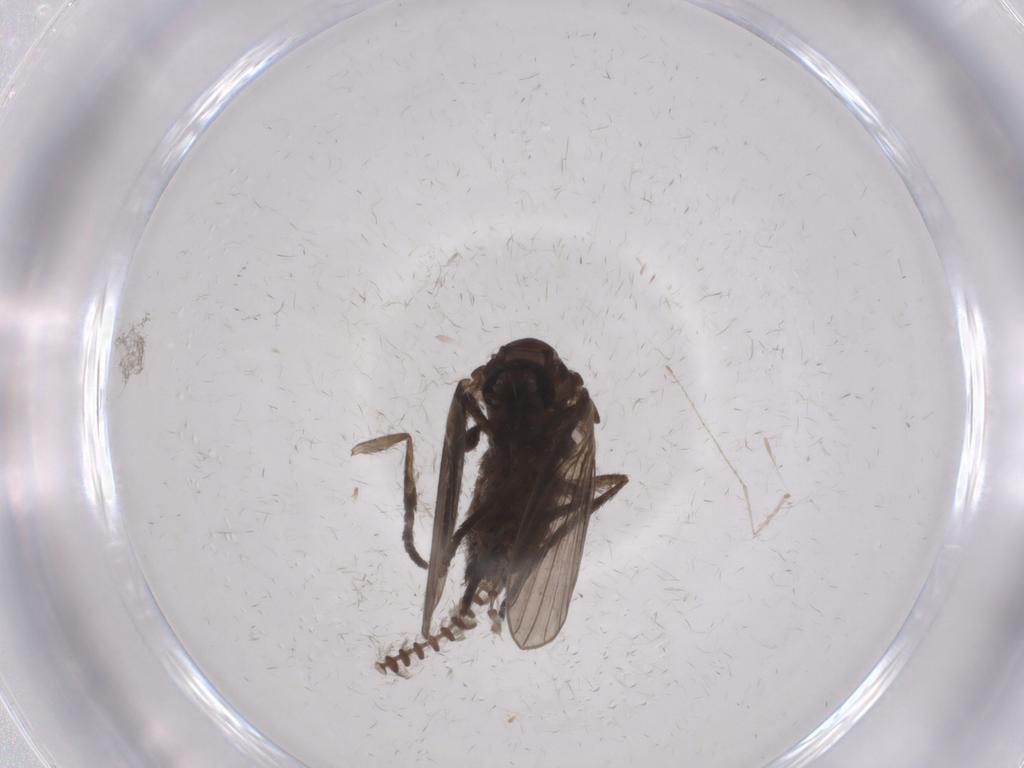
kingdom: Animalia
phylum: Arthropoda
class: Insecta
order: Diptera
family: Psychodidae
